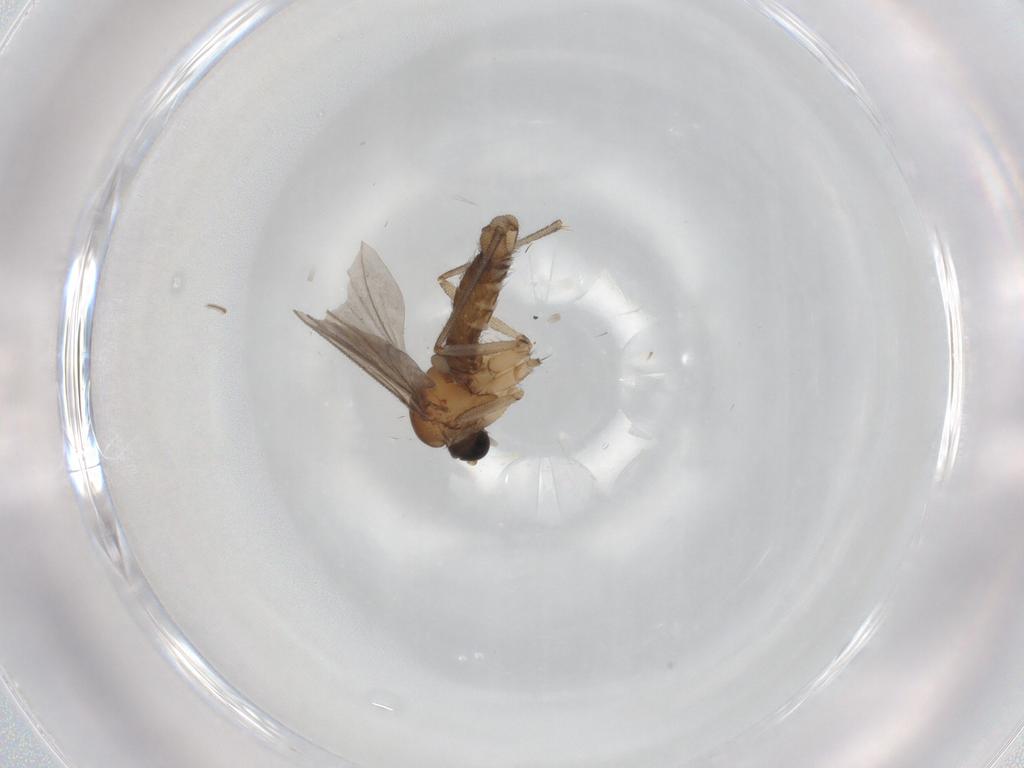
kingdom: Animalia
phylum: Arthropoda
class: Insecta
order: Diptera
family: Sciaridae
